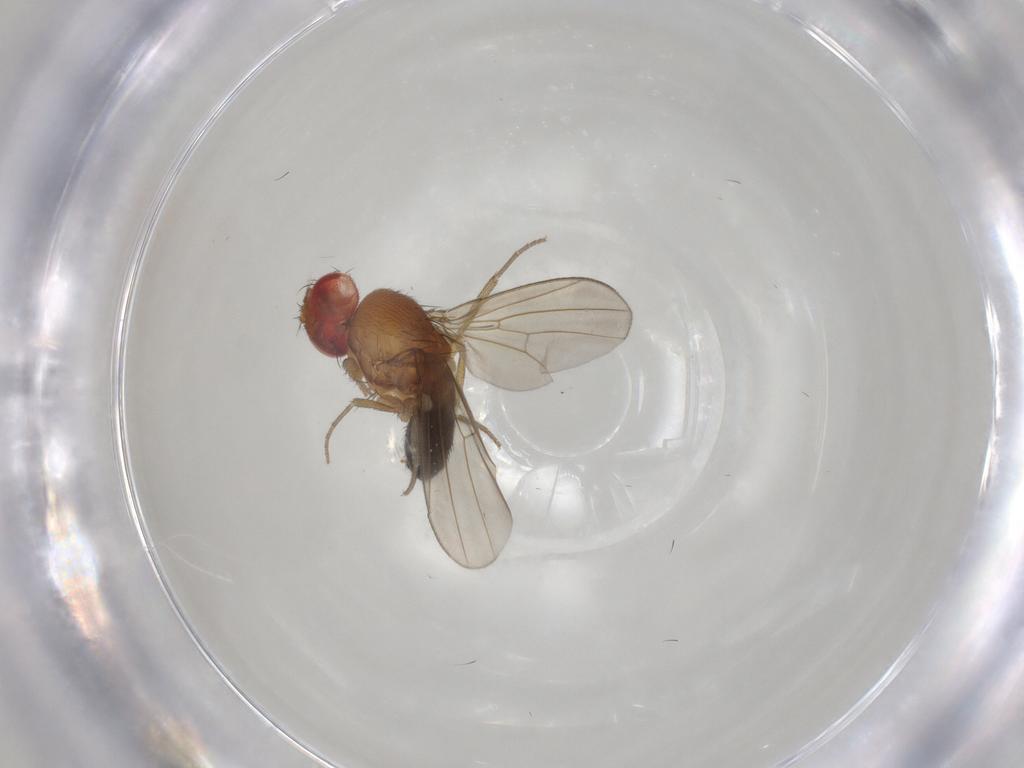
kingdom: Animalia
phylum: Arthropoda
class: Insecta
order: Diptera
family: Drosophilidae
